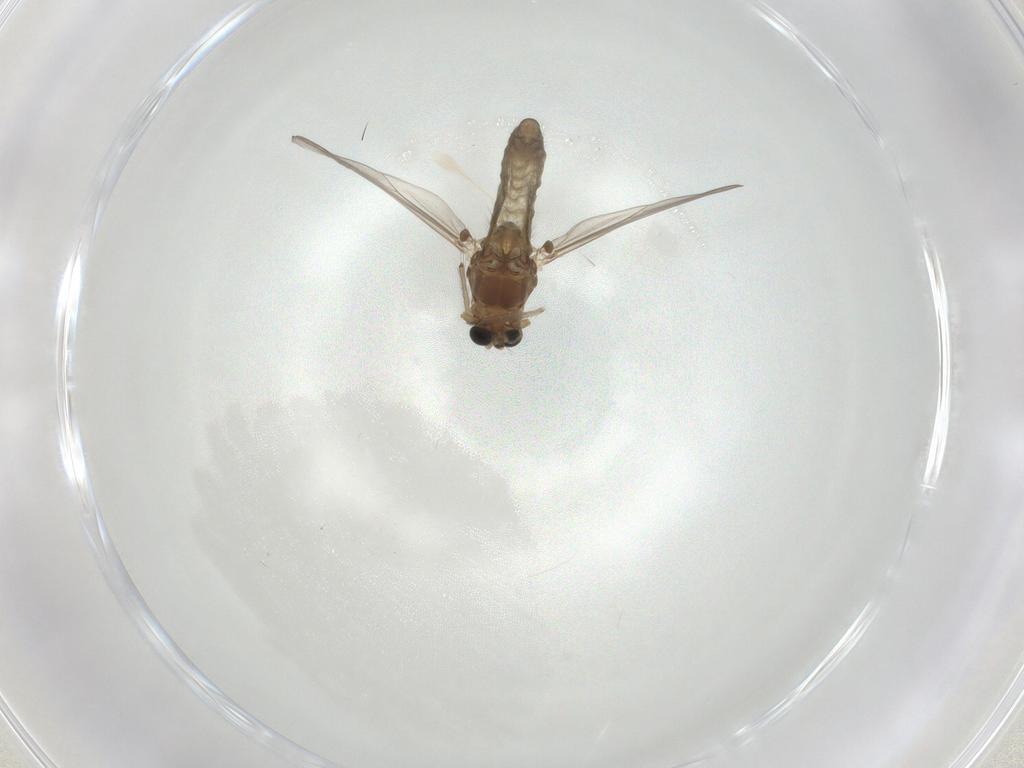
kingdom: Animalia
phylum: Arthropoda
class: Insecta
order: Diptera
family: Chironomidae
